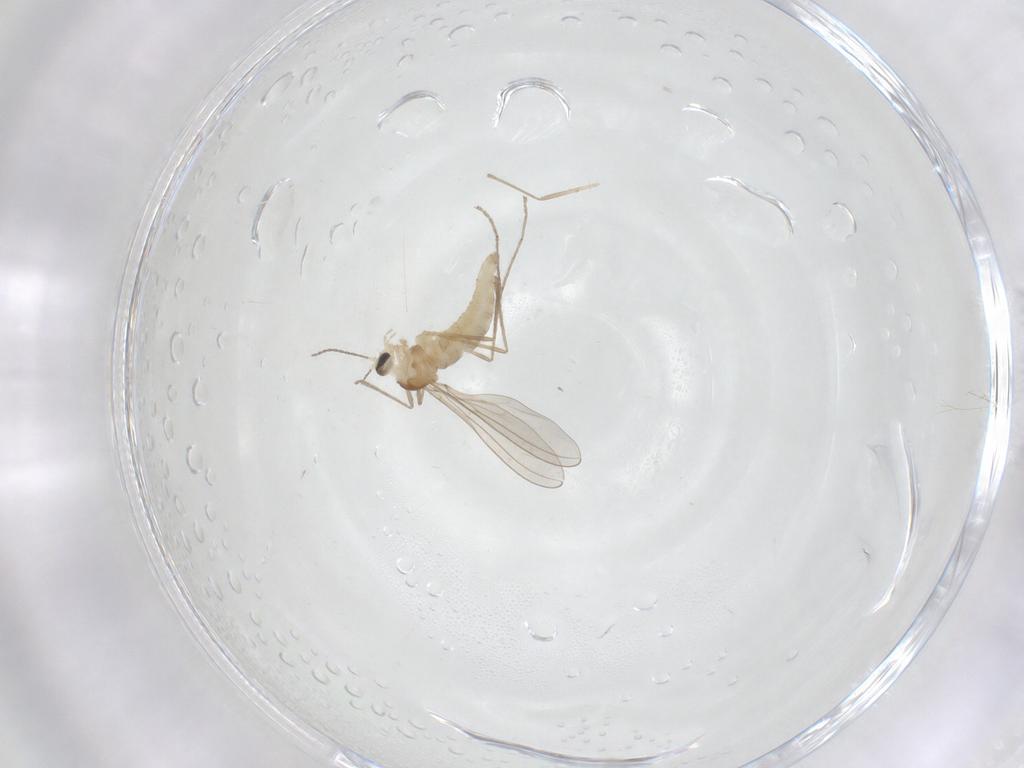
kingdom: Animalia
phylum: Arthropoda
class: Insecta
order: Diptera
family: Cecidomyiidae
